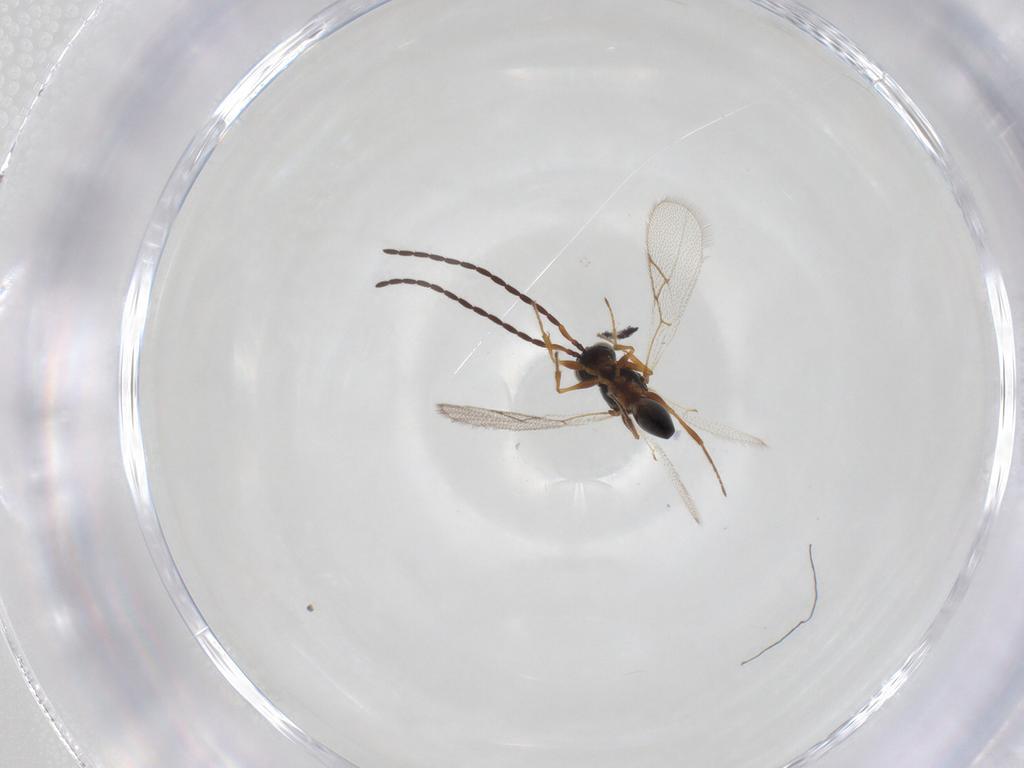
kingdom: Animalia
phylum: Arthropoda
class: Insecta
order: Hymenoptera
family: Figitidae
